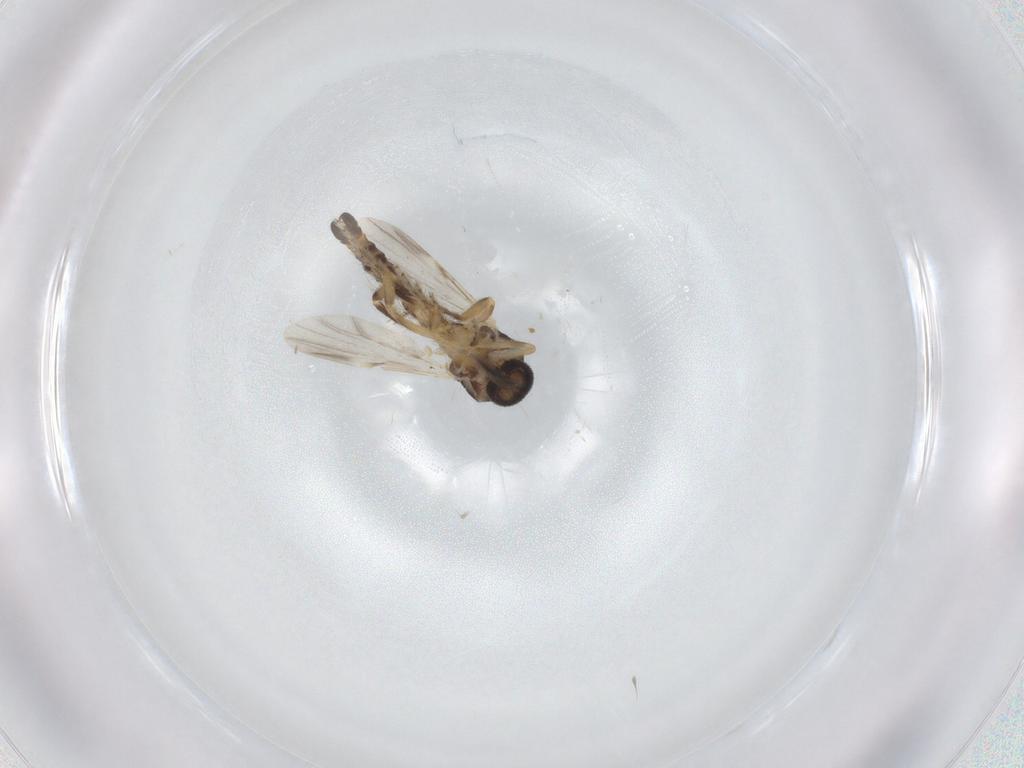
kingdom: Animalia
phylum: Arthropoda
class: Insecta
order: Diptera
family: Ceratopogonidae
